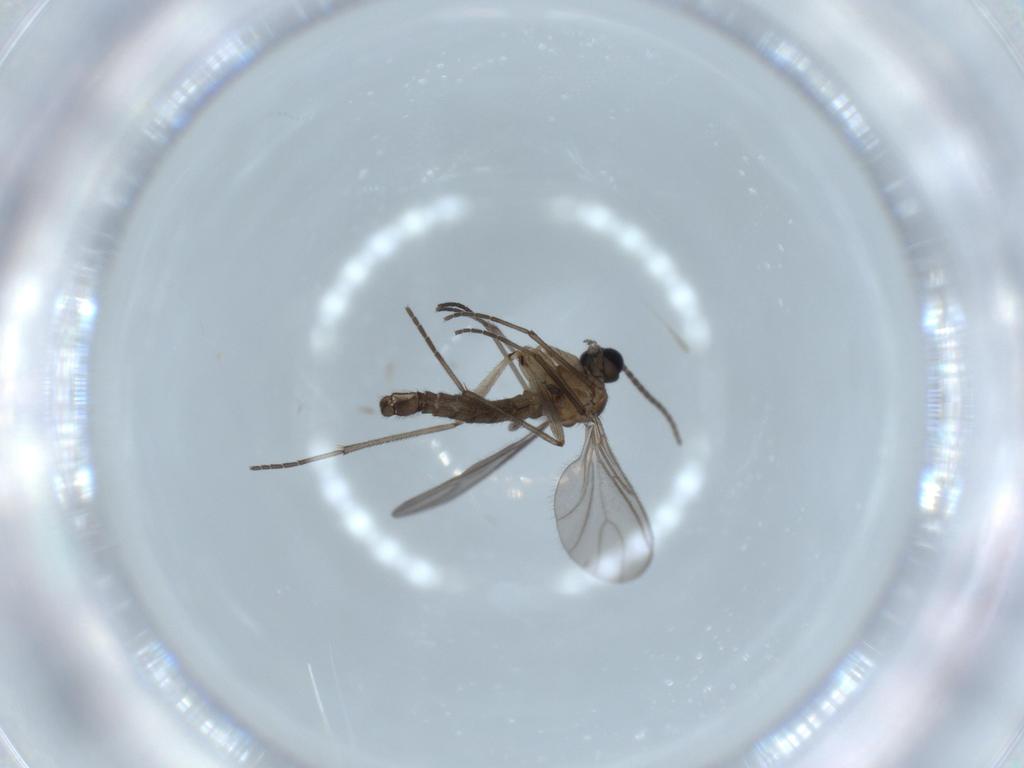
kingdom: Animalia
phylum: Arthropoda
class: Insecta
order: Diptera
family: Sciaridae
